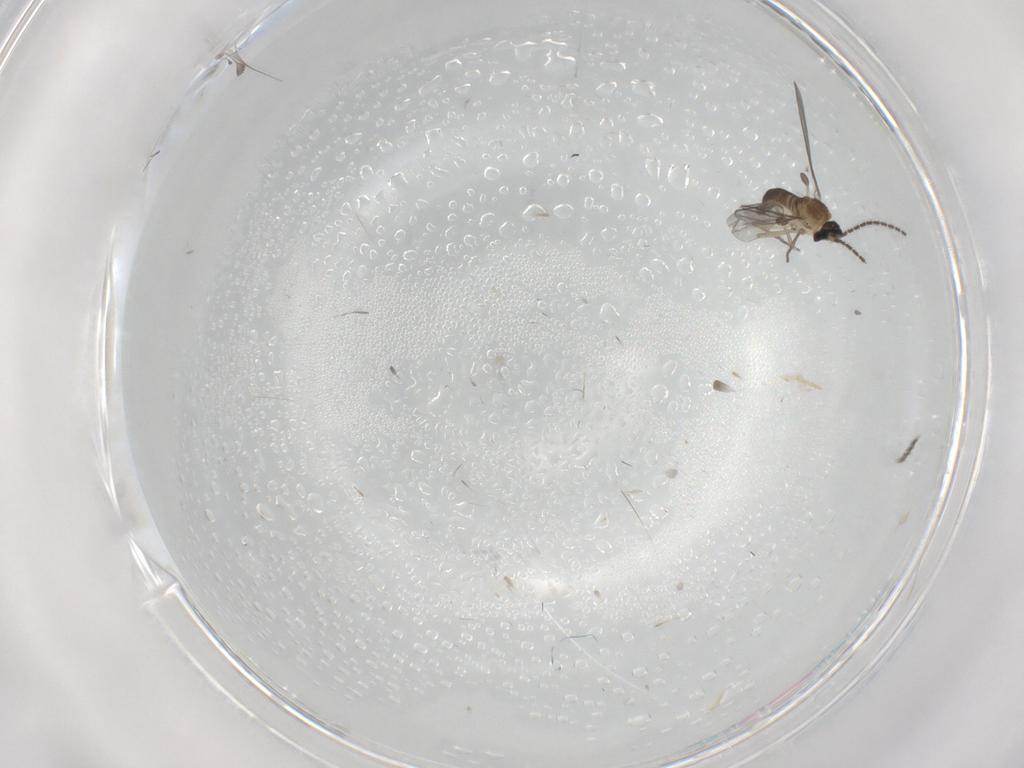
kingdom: Animalia
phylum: Arthropoda
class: Insecta
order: Diptera
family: Sciaridae
